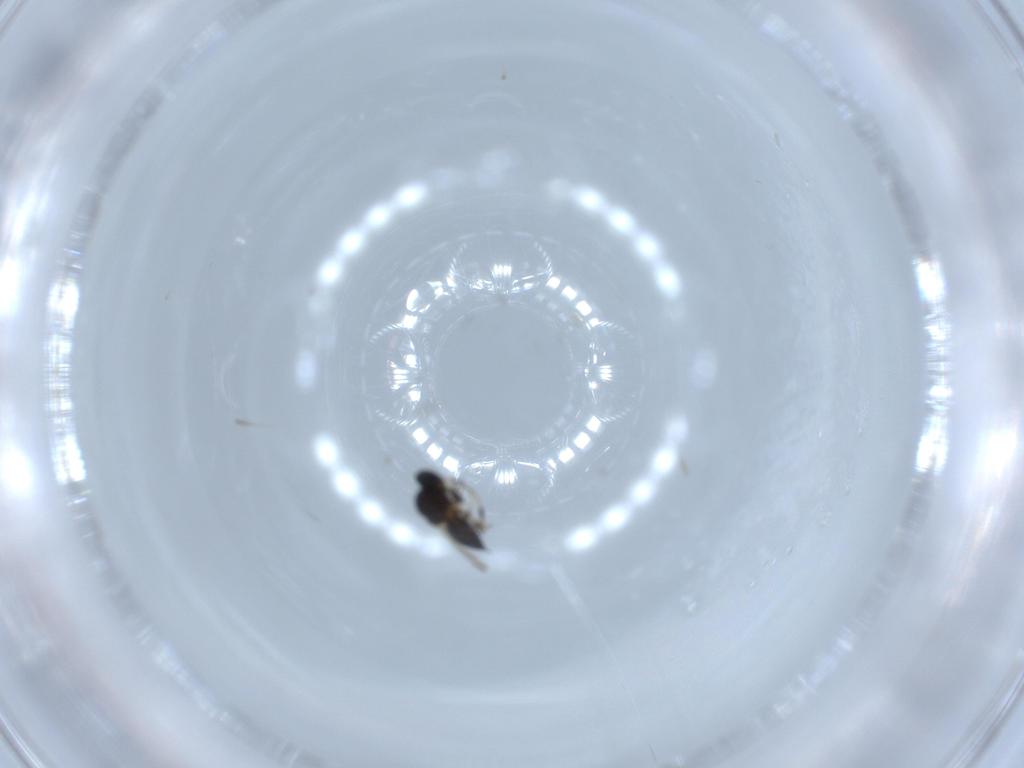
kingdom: Animalia
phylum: Arthropoda
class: Insecta
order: Hymenoptera
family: Platygastridae
